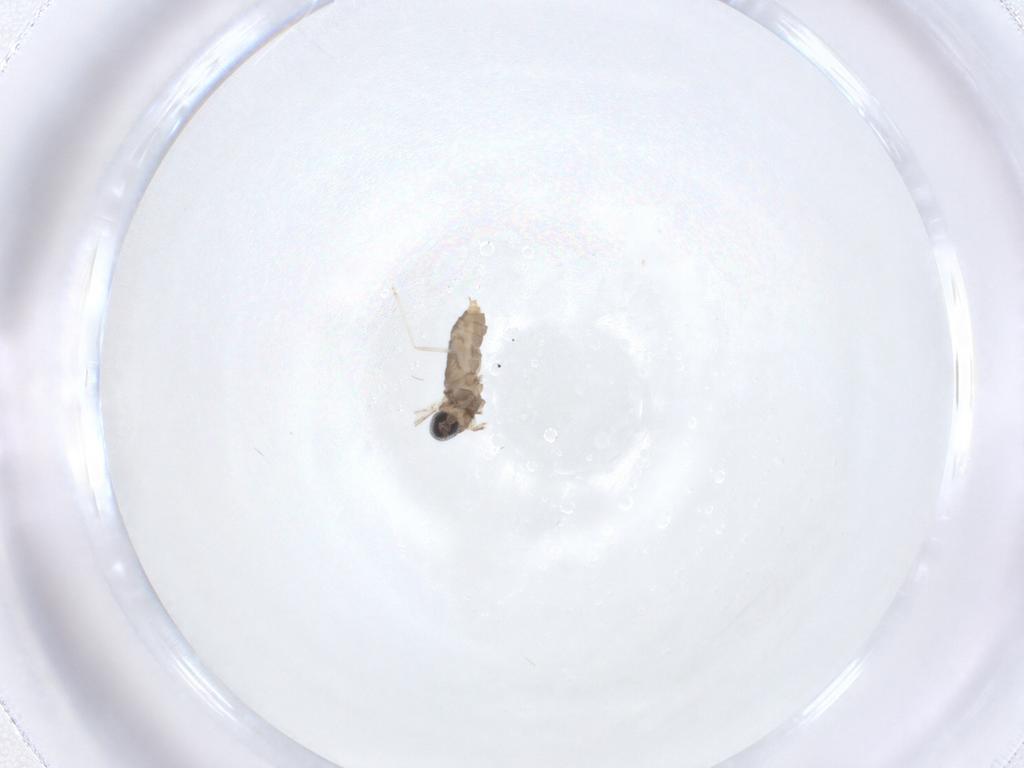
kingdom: Animalia
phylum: Arthropoda
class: Insecta
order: Diptera
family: Cecidomyiidae
